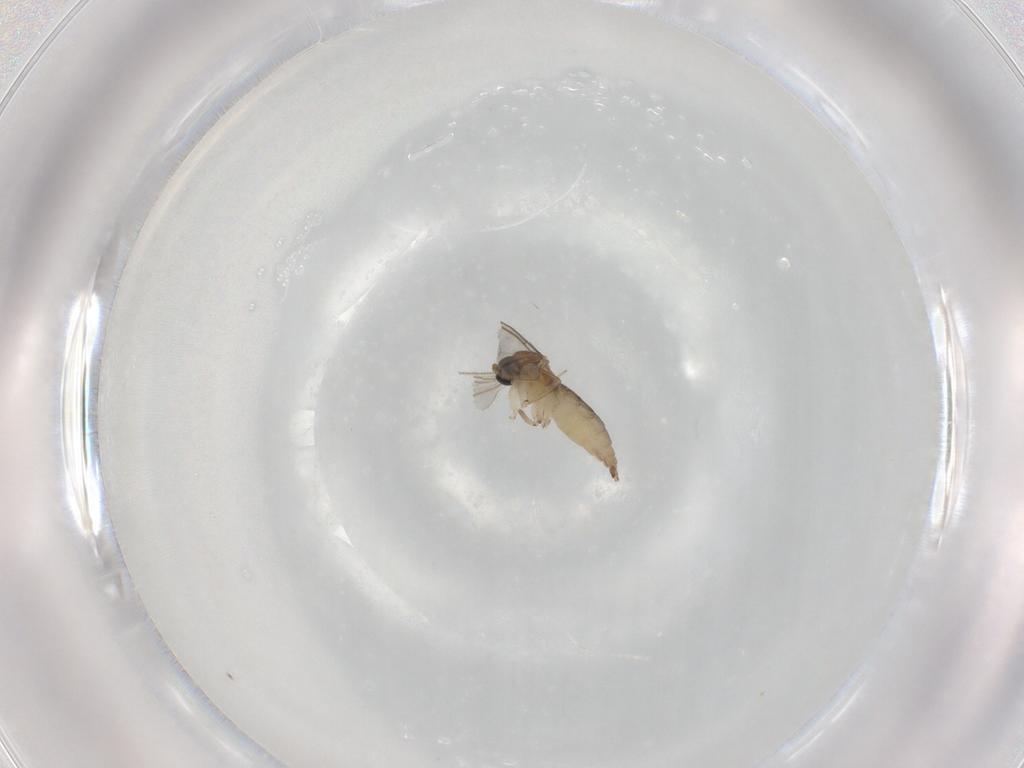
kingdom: Animalia
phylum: Arthropoda
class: Insecta
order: Diptera
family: Sciaridae
